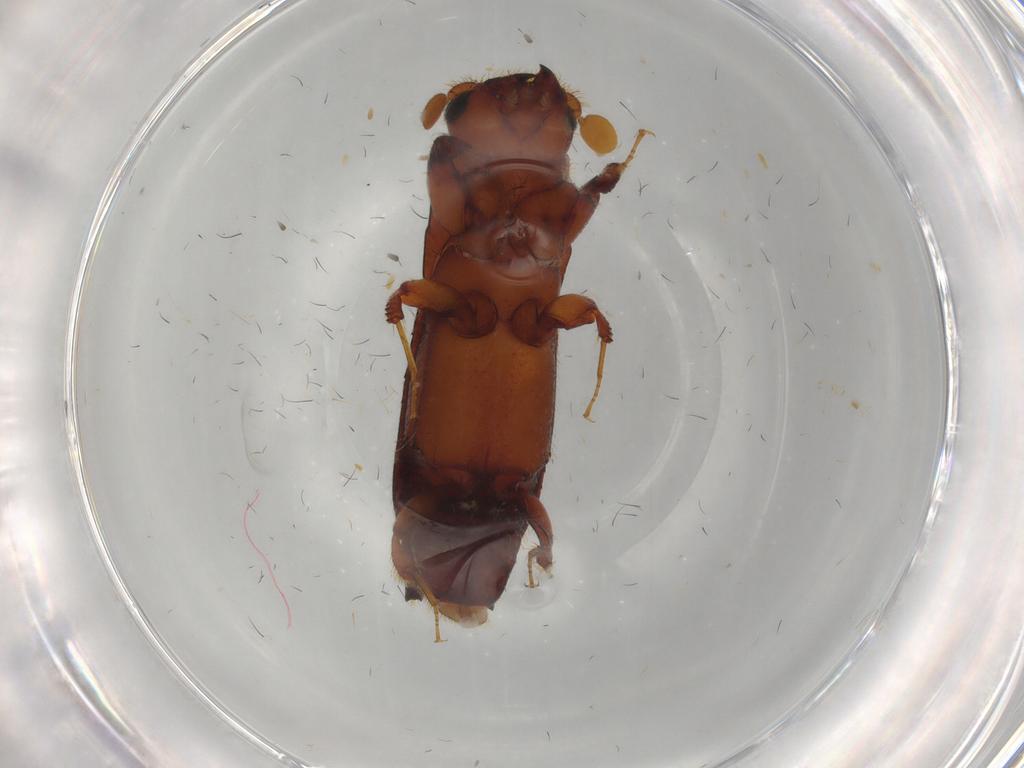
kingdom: Animalia
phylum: Arthropoda
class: Insecta
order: Coleoptera
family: Curculionidae
